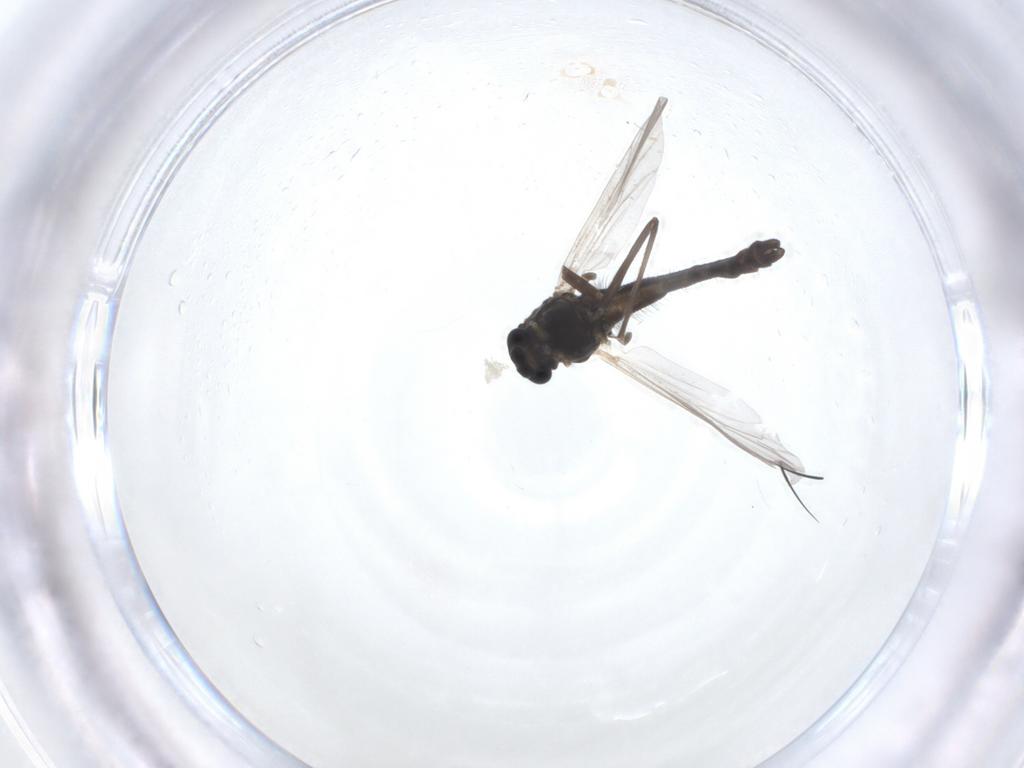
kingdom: Animalia
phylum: Arthropoda
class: Insecta
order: Diptera
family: Chironomidae
